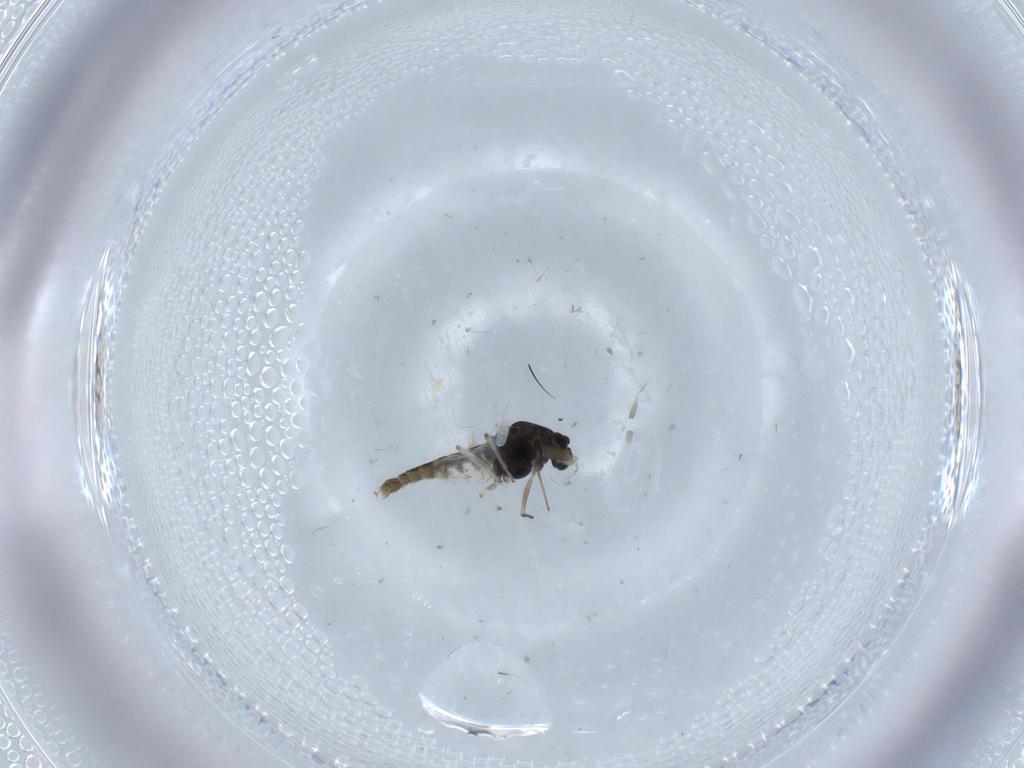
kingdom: Animalia
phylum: Arthropoda
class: Insecta
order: Diptera
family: Chironomidae
